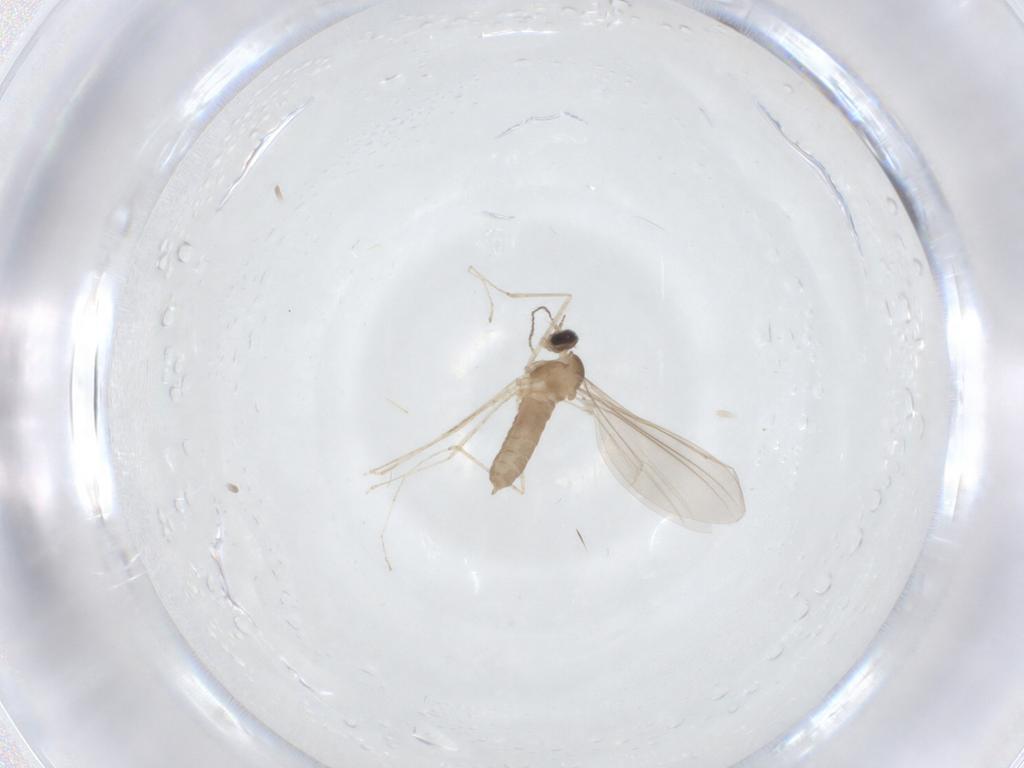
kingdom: Animalia
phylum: Arthropoda
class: Insecta
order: Diptera
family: Cecidomyiidae
